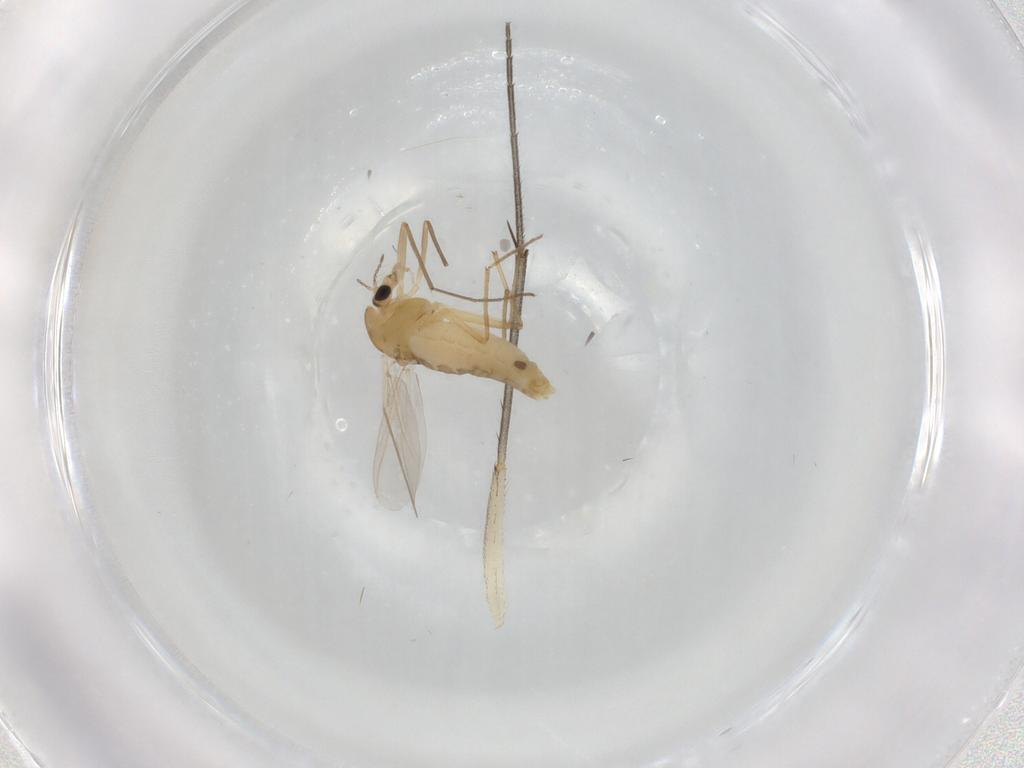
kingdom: Animalia
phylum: Arthropoda
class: Insecta
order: Diptera
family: Chironomidae
